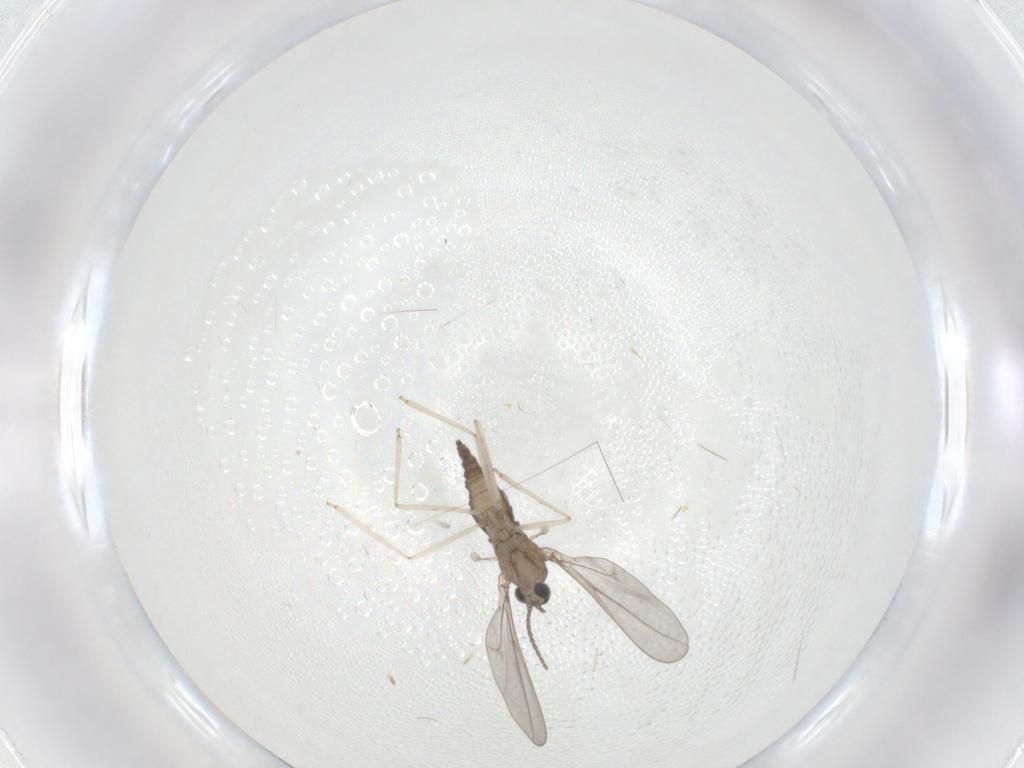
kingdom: Animalia
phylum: Arthropoda
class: Insecta
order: Diptera
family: Cecidomyiidae
